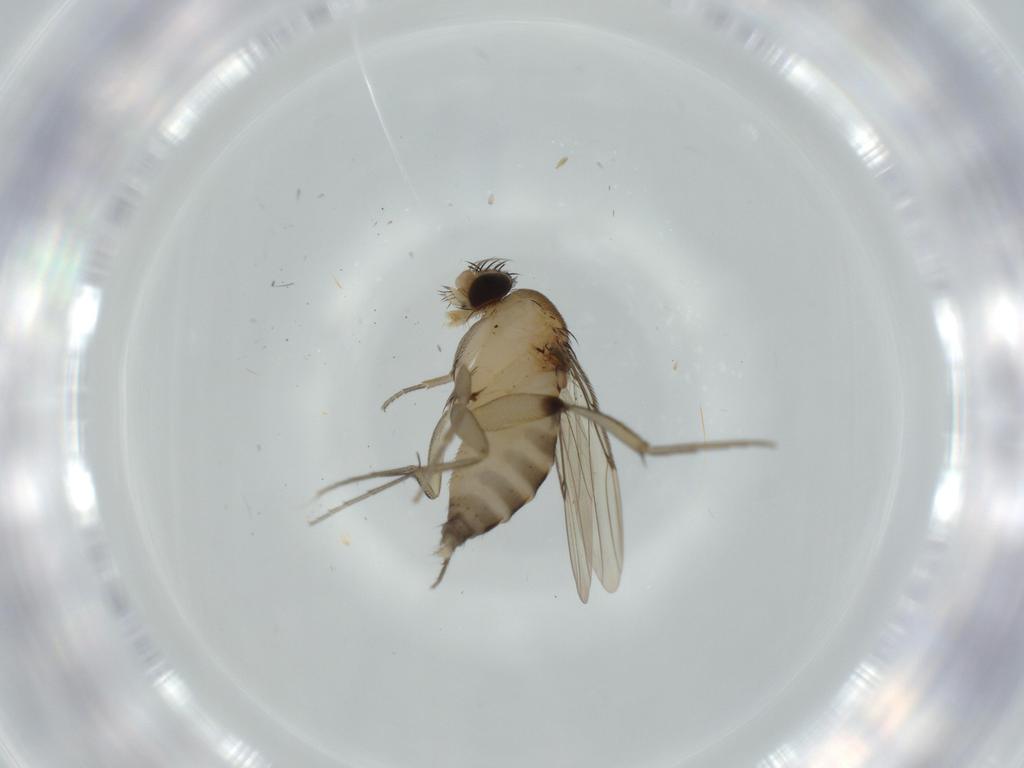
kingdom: Animalia
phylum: Arthropoda
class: Insecta
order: Diptera
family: Phoridae
